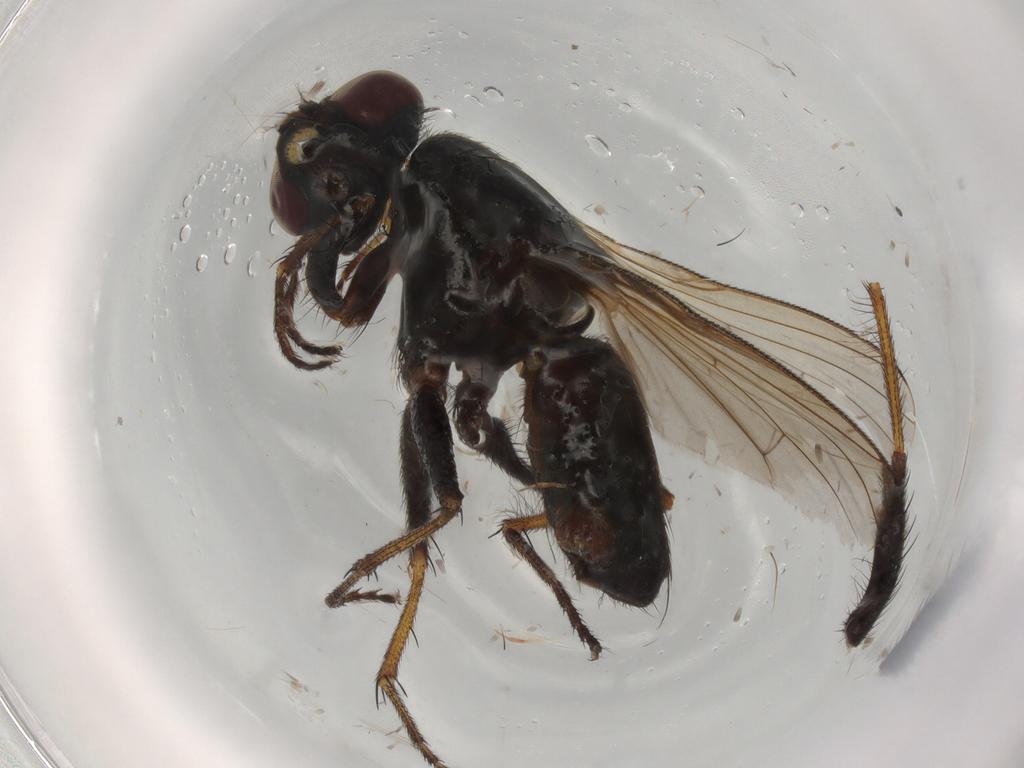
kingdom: Animalia
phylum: Arthropoda
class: Insecta
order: Diptera
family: Muscidae
